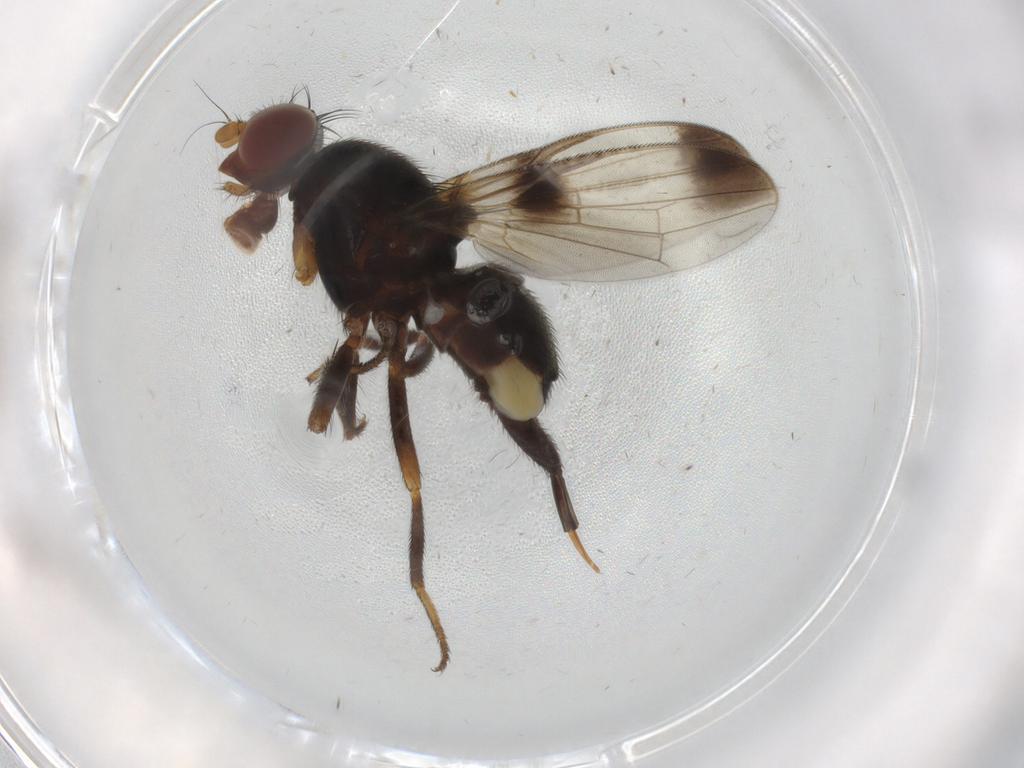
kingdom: Animalia
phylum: Arthropoda
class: Insecta
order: Diptera
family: Ulidiidae
